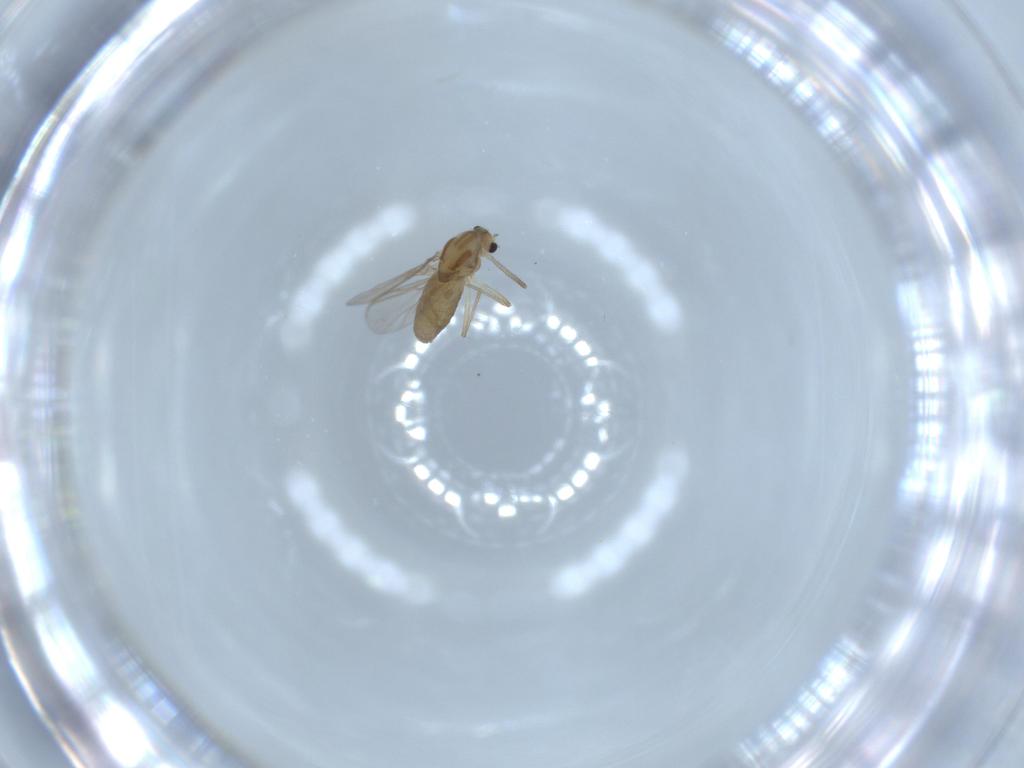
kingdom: Animalia
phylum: Arthropoda
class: Insecta
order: Diptera
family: Chironomidae
